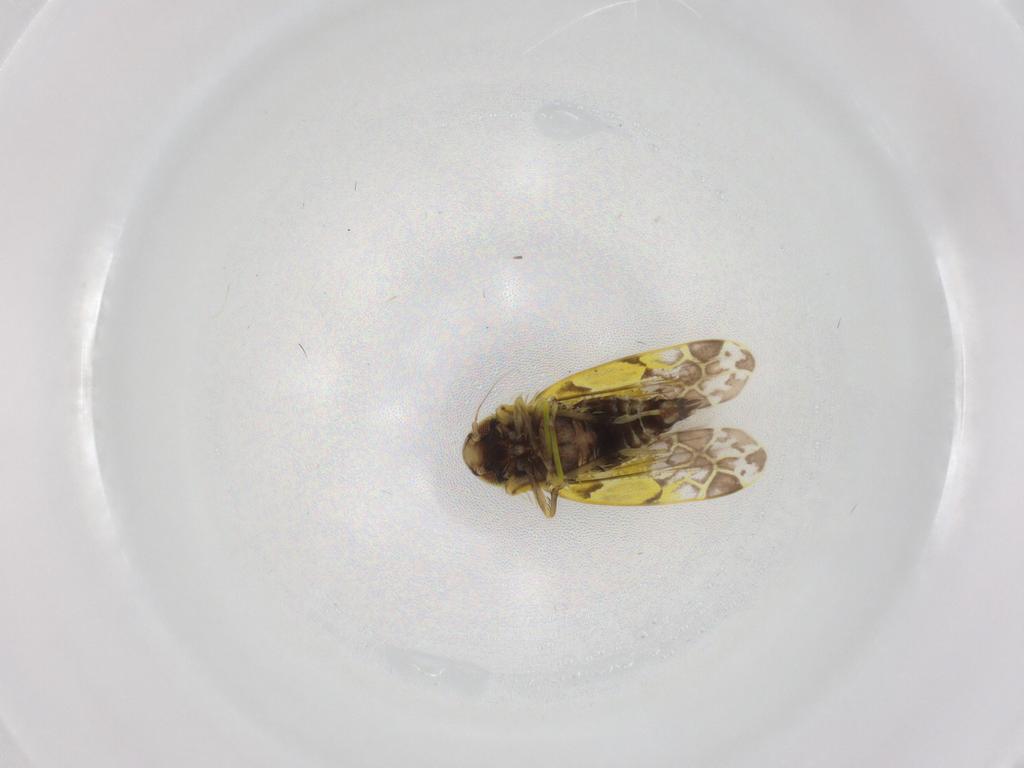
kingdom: Animalia
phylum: Arthropoda
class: Insecta
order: Hemiptera
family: Cicadellidae
